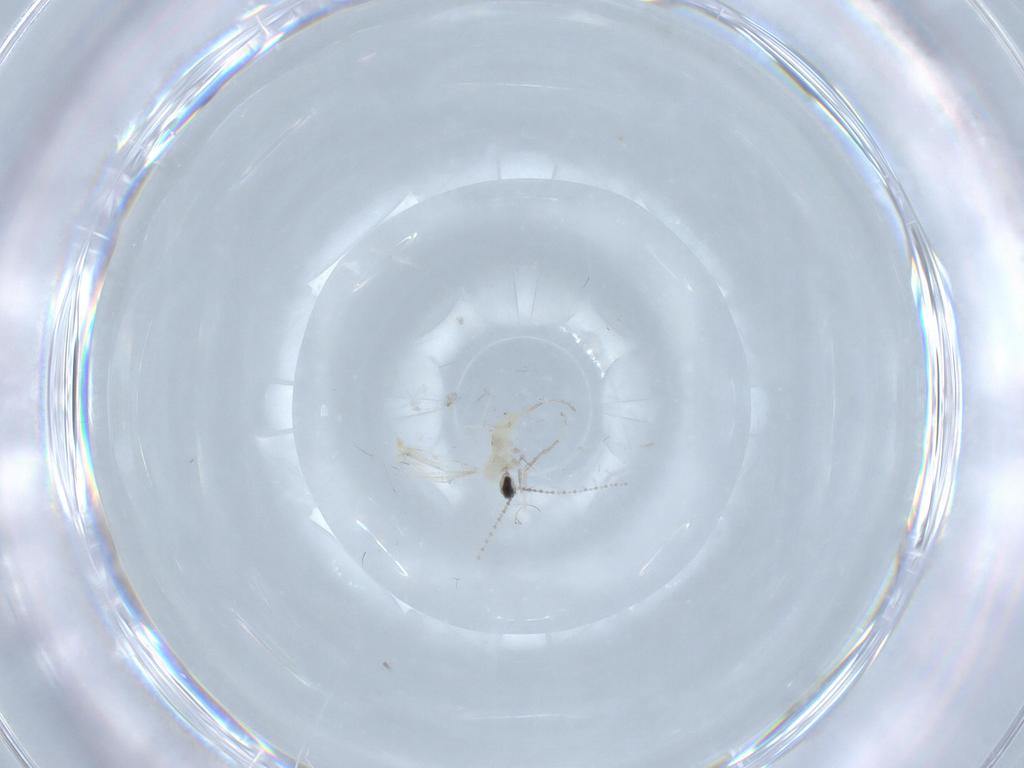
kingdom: Animalia
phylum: Arthropoda
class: Insecta
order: Diptera
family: Cecidomyiidae
